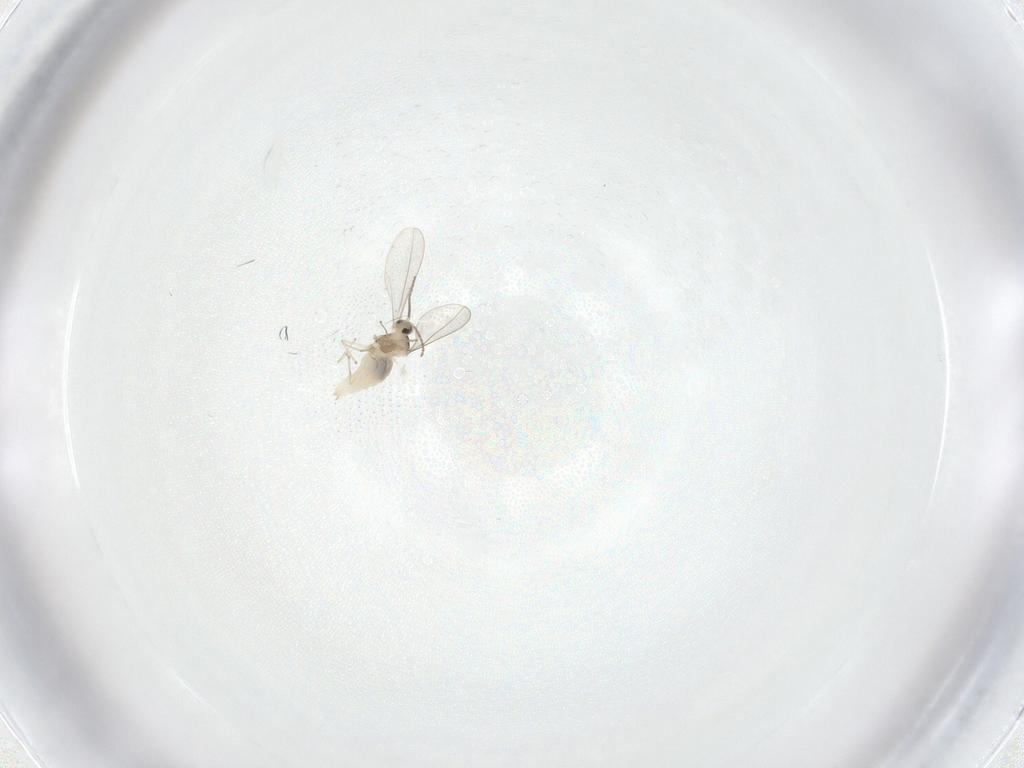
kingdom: Animalia
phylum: Arthropoda
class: Insecta
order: Diptera
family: Cecidomyiidae
